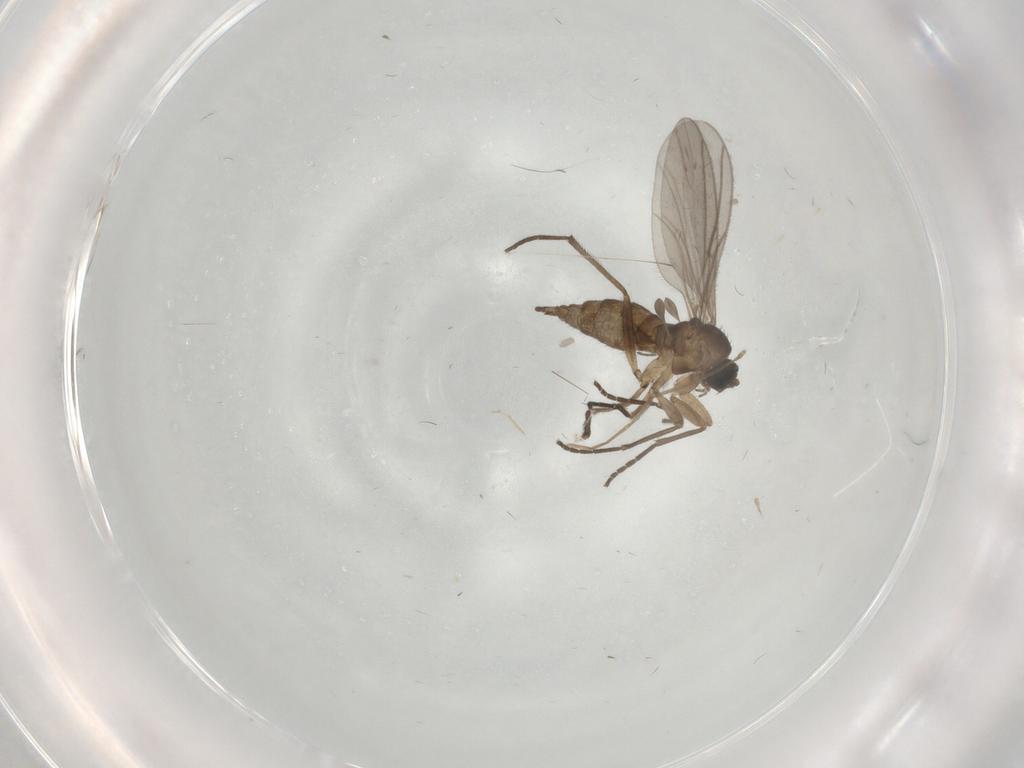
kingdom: Animalia
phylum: Arthropoda
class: Insecta
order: Diptera
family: Sciaridae
